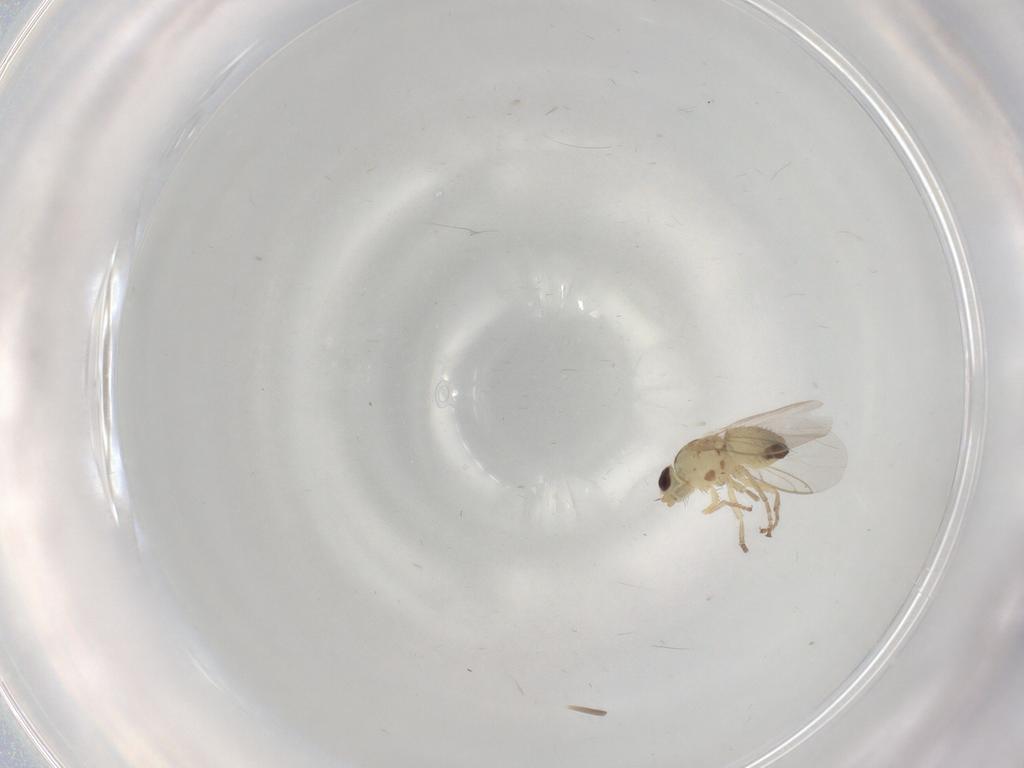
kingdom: Animalia
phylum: Arthropoda
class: Insecta
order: Diptera
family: Agromyzidae
